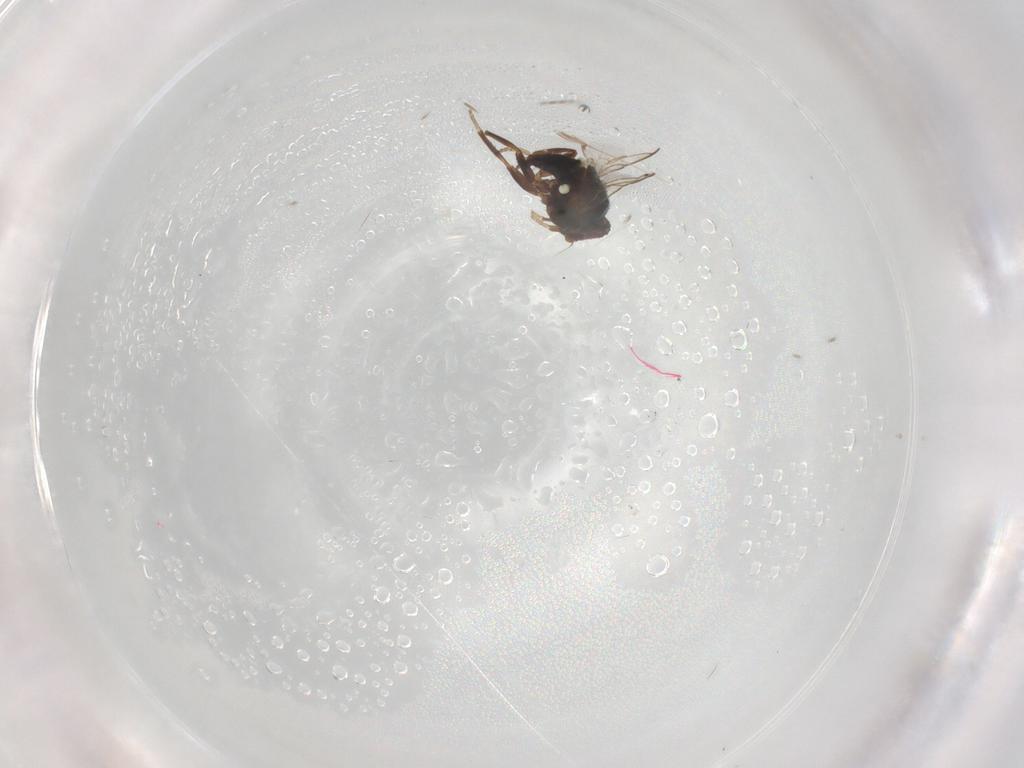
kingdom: Animalia
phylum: Arthropoda
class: Insecta
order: Diptera
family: Agromyzidae
